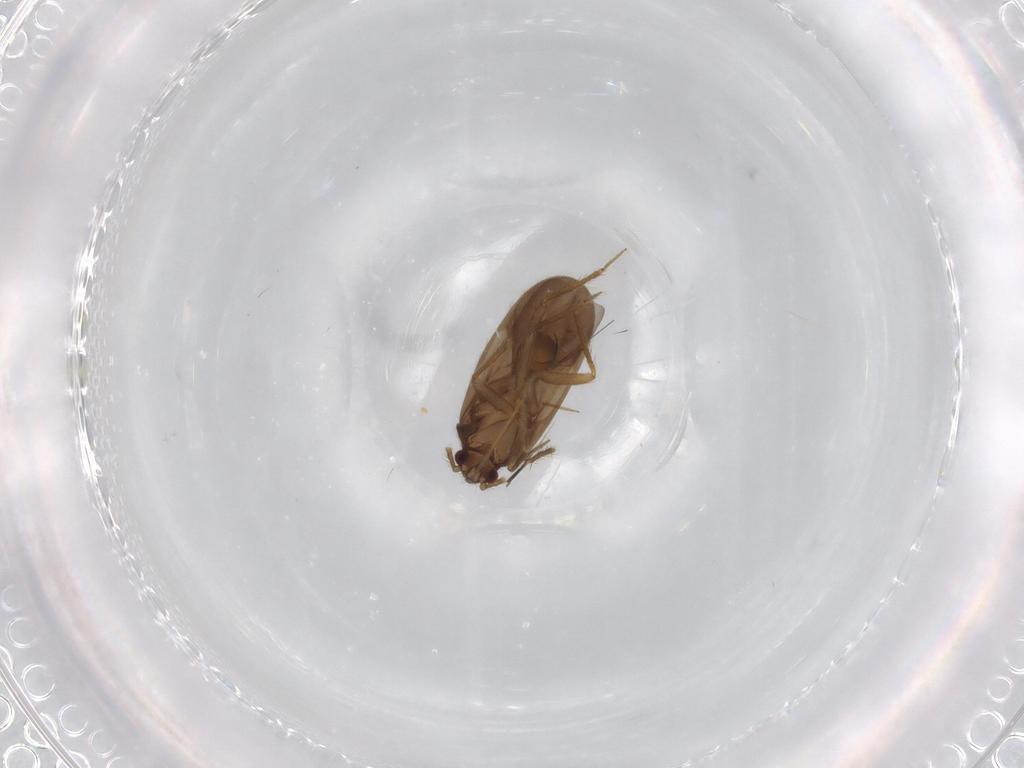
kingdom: Animalia
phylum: Arthropoda
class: Insecta
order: Hemiptera
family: Ceratocombidae
